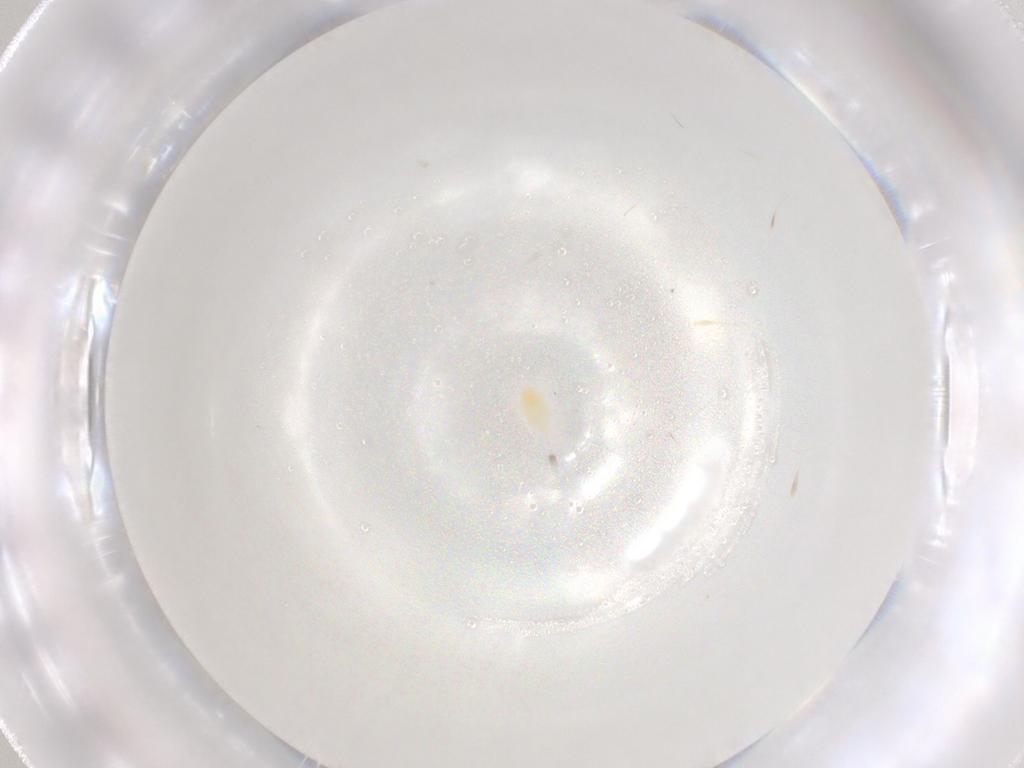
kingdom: Animalia
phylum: Arthropoda
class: Arachnida
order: Trombidiformes
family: Eupodidae
